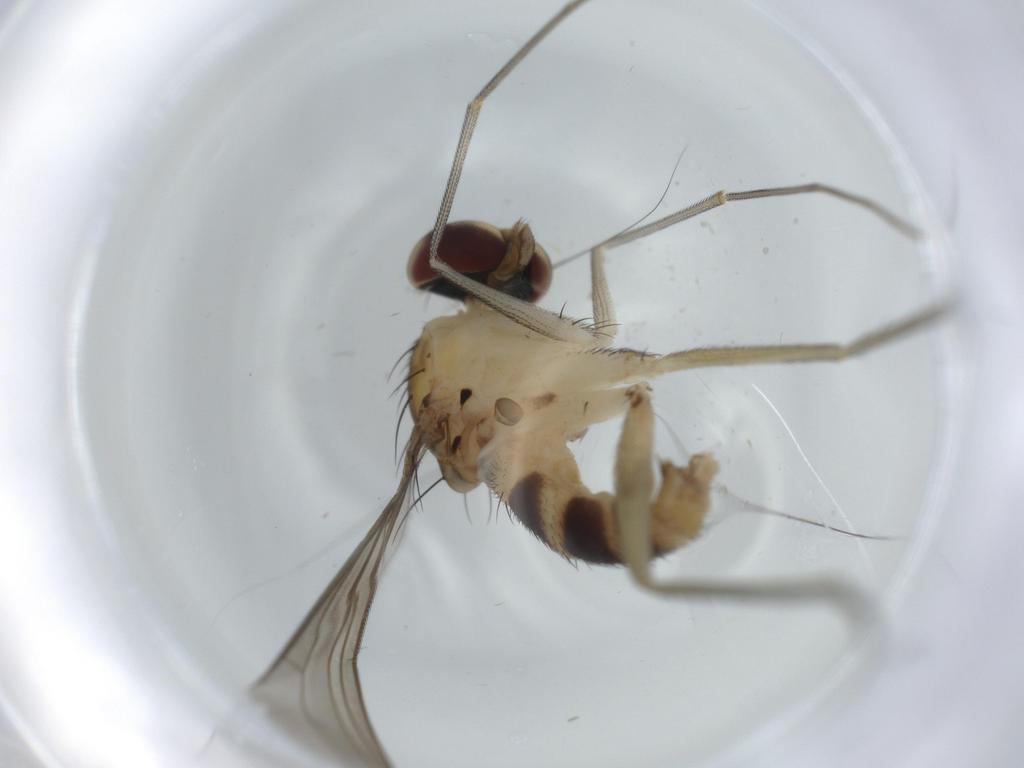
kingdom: Animalia
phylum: Arthropoda
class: Insecta
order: Diptera
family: Dolichopodidae
